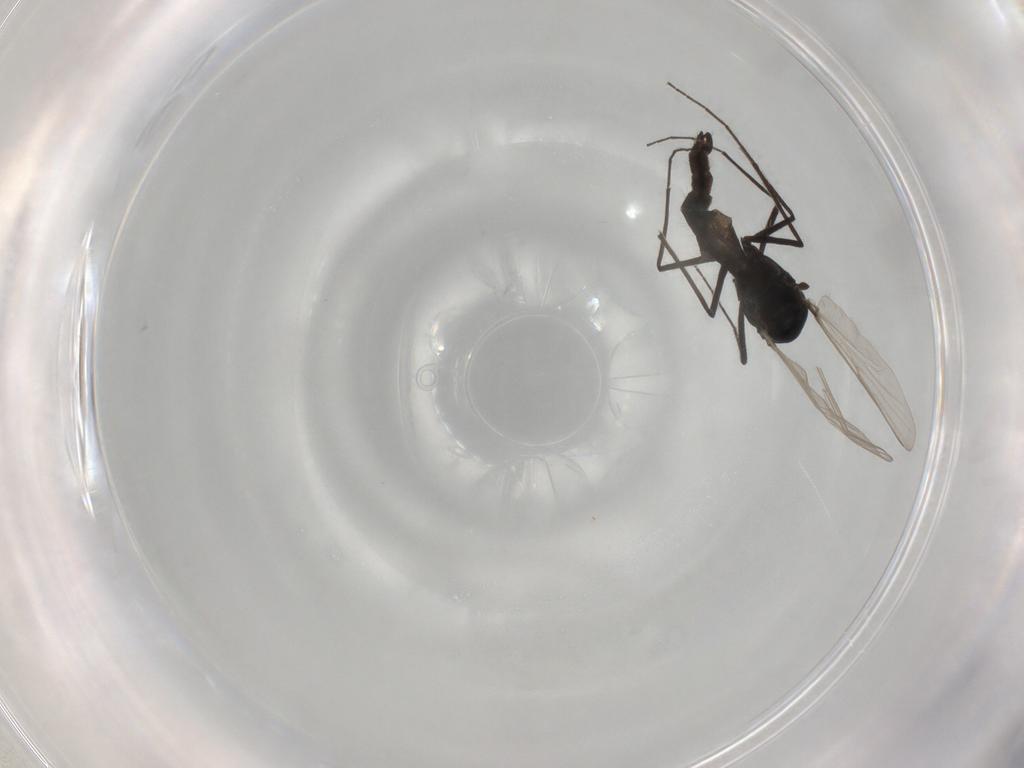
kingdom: Animalia
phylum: Arthropoda
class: Insecta
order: Diptera
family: Chironomidae
